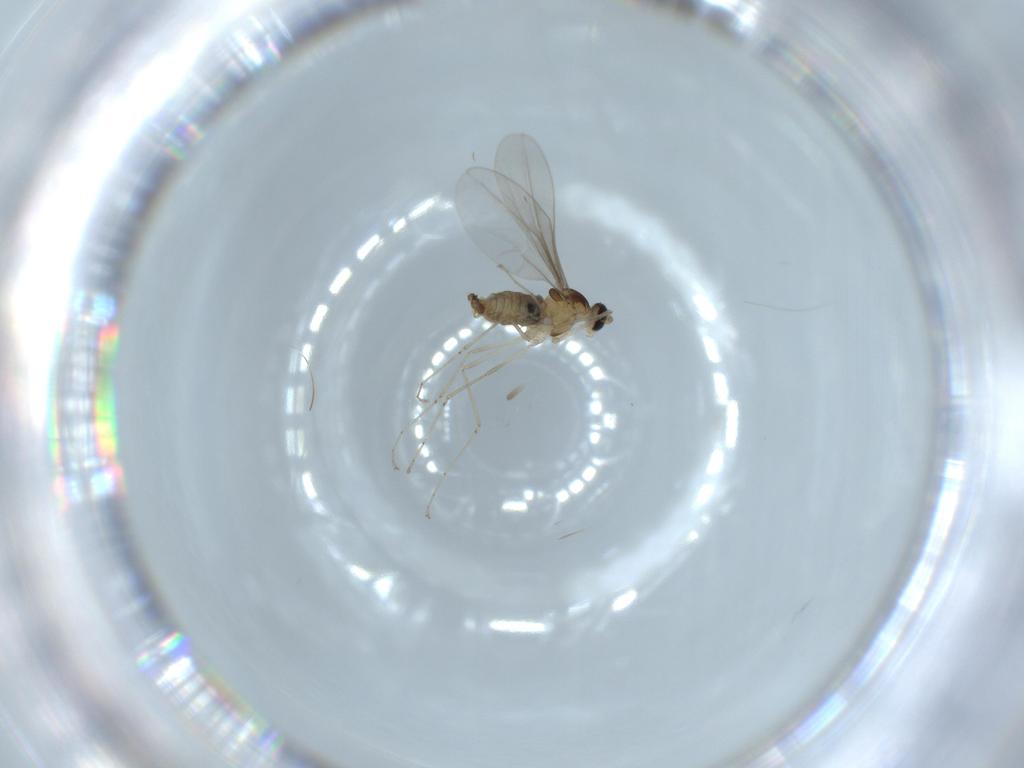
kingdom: Animalia
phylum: Arthropoda
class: Insecta
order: Diptera
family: Cecidomyiidae
